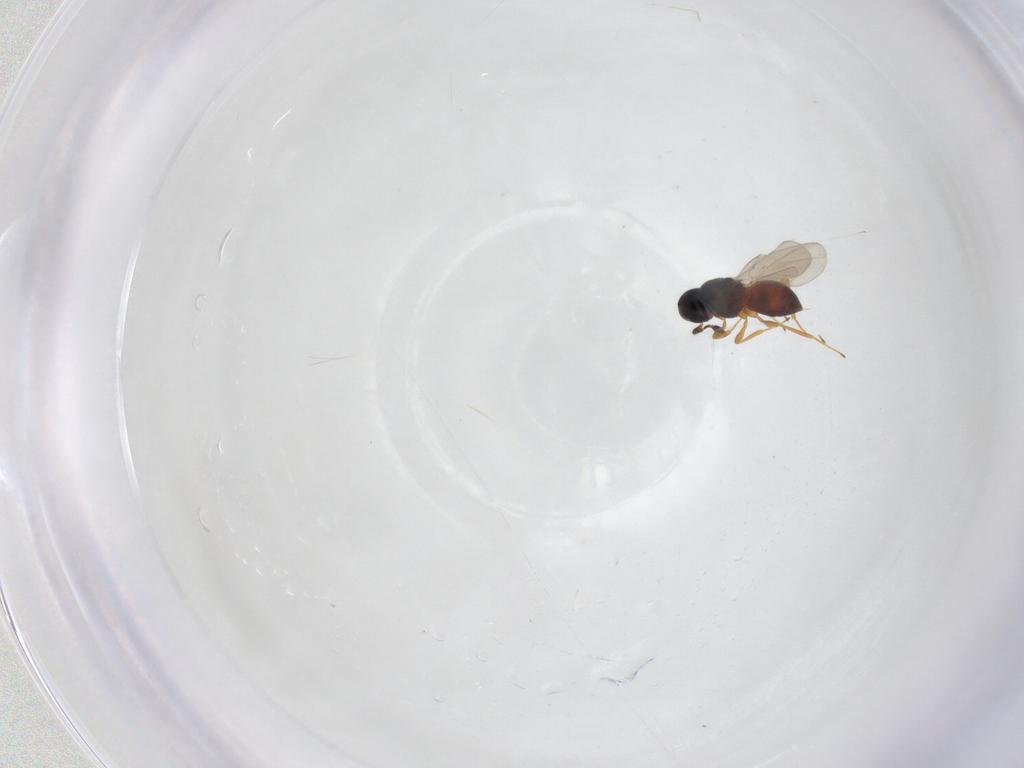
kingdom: Animalia
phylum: Arthropoda
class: Insecta
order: Hymenoptera
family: Platygastridae
